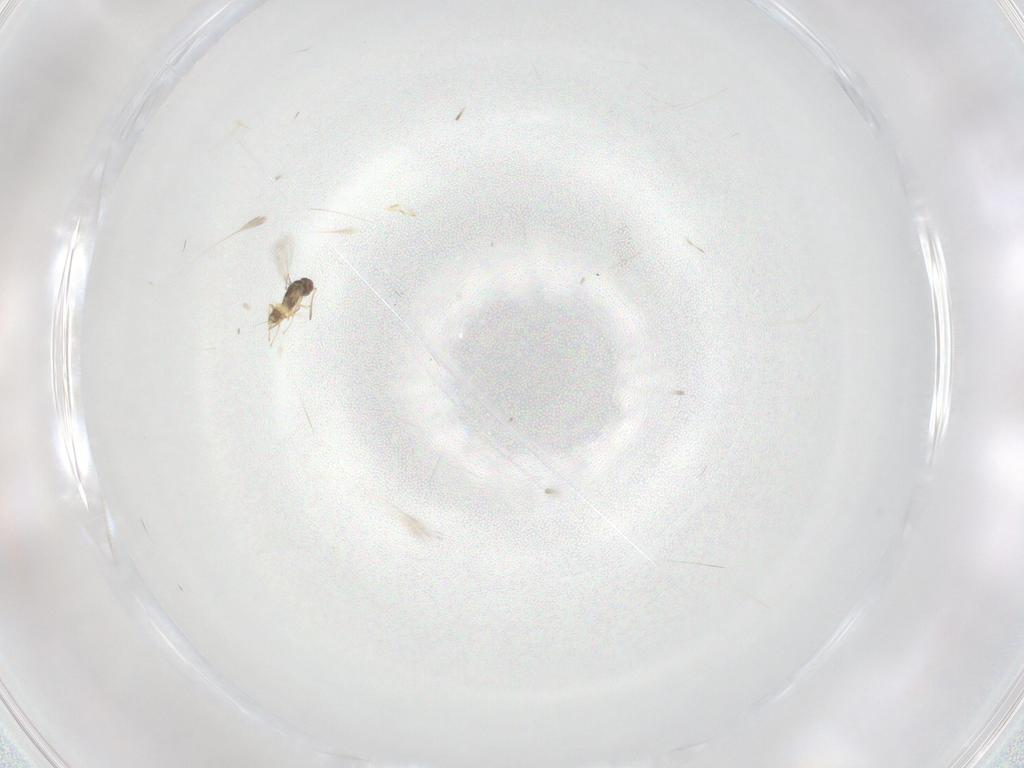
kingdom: Animalia
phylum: Arthropoda
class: Insecta
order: Hymenoptera
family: Mymaridae
